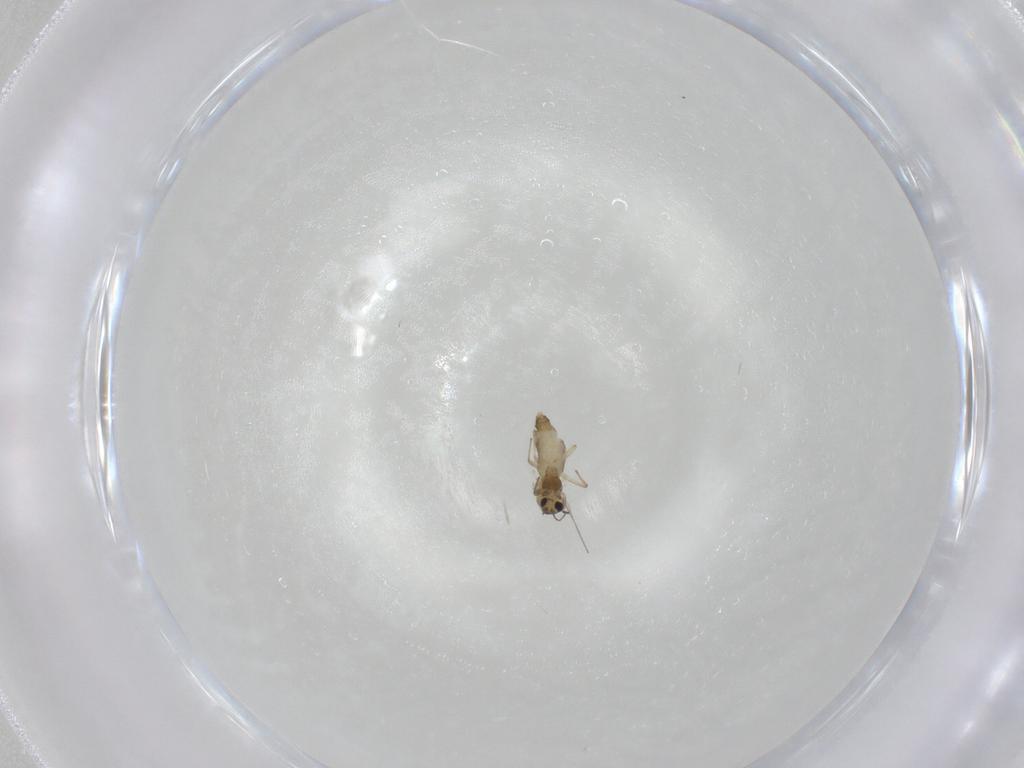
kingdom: Animalia
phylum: Arthropoda
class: Insecta
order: Diptera
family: Chironomidae
